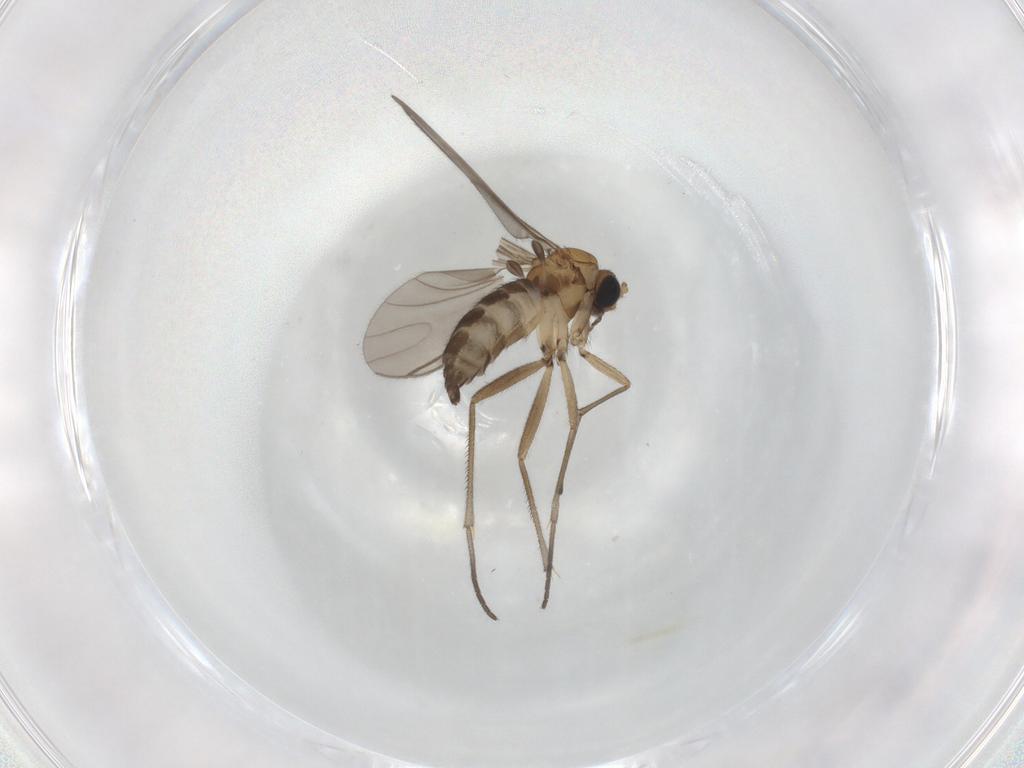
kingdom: Animalia
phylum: Arthropoda
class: Insecta
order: Diptera
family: Sciaridae
